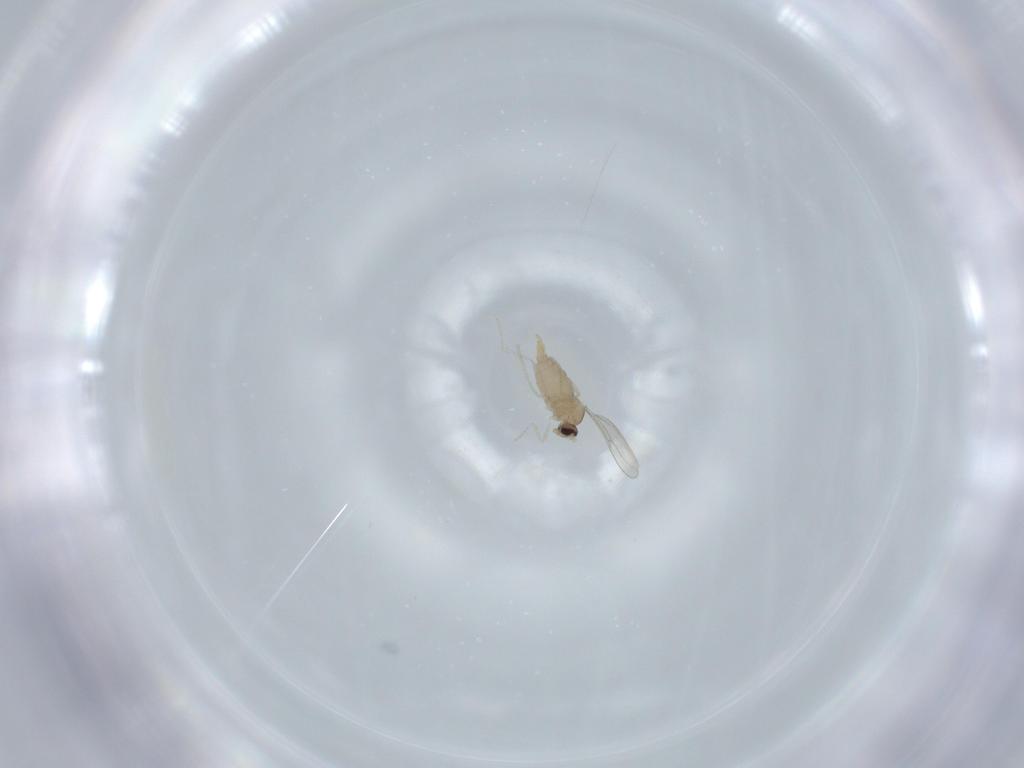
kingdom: Animalia
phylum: Arthropoda
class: Insecta
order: Diptera
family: Cecidomyiidae
